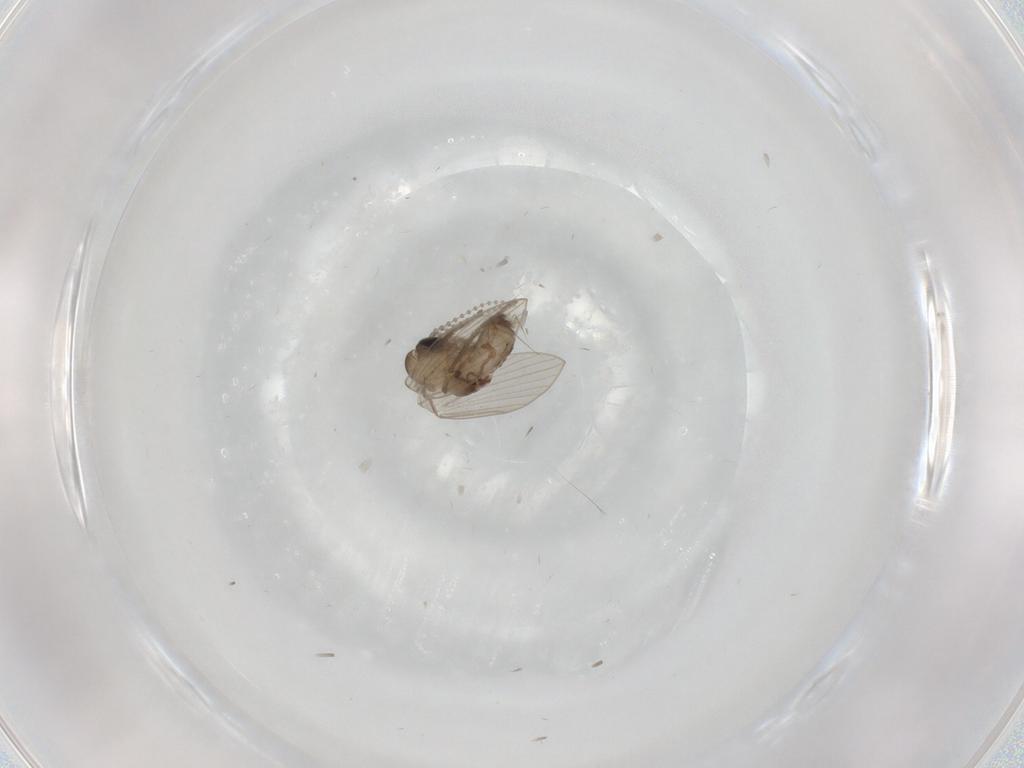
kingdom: Animalia
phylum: Arthropoda
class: Insecta
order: Diptera
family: Psychodidae
